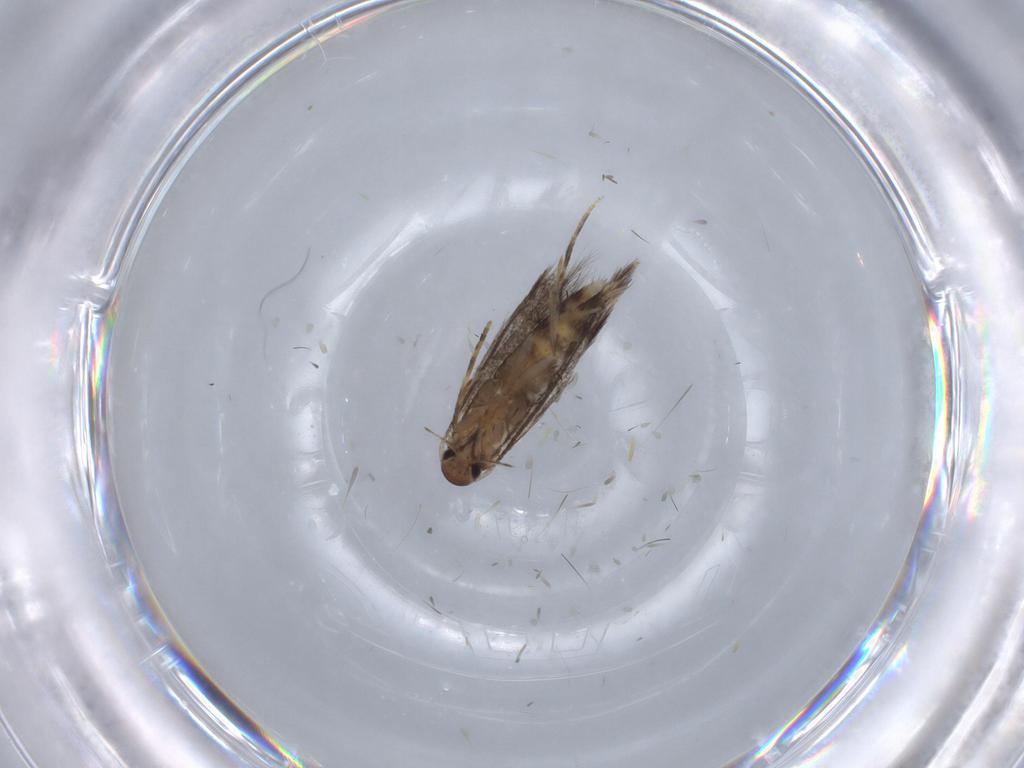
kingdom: Animalia
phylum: Arthropoda
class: Insecta
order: Lepidoptera
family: Elachistidae
